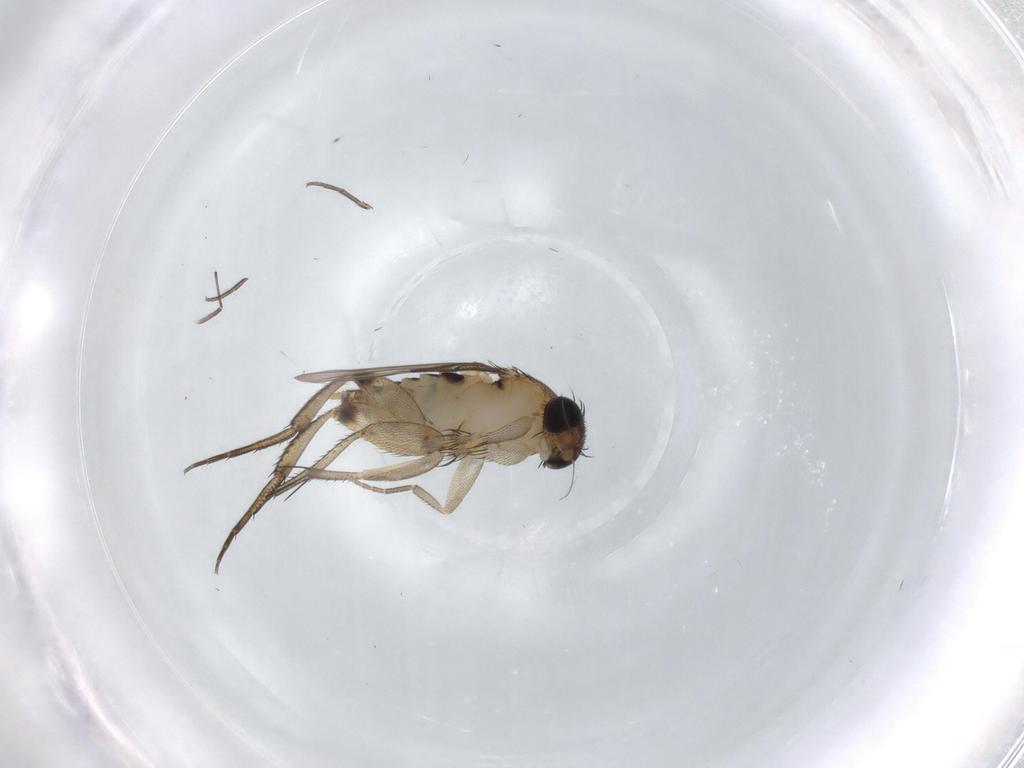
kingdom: Animalia
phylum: Arthropoda
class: Insecta
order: Diptera
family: Phoridae
